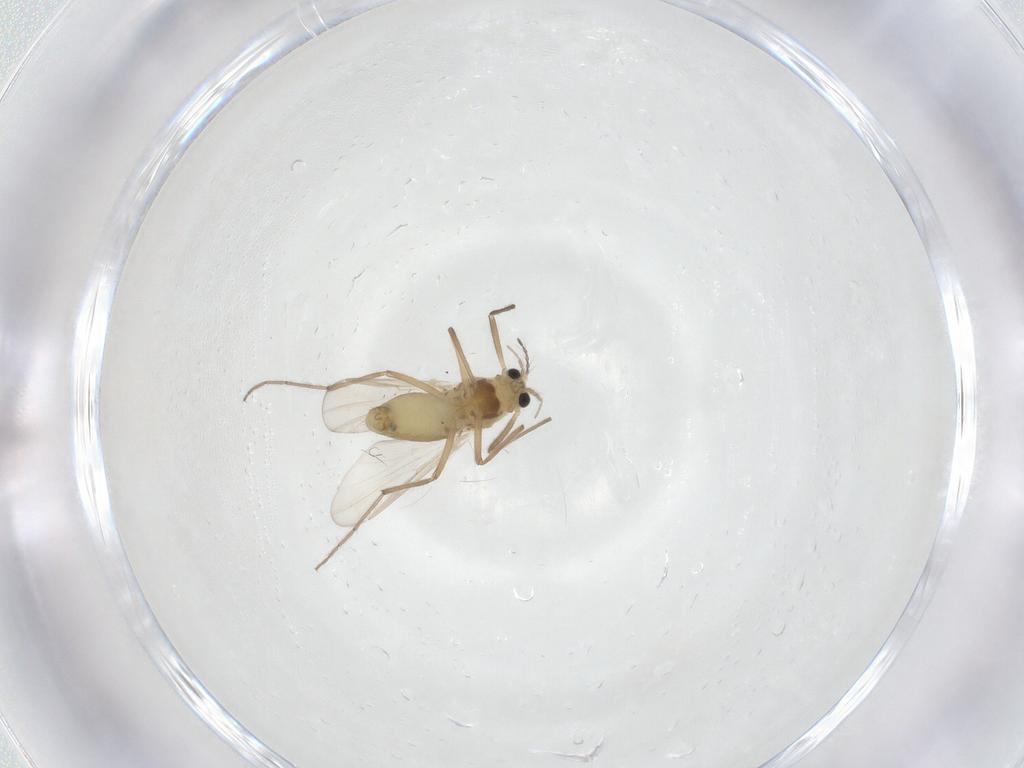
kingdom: Animalia
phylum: Arthropoda
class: Insecta
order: Diptera
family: Chironomidae
